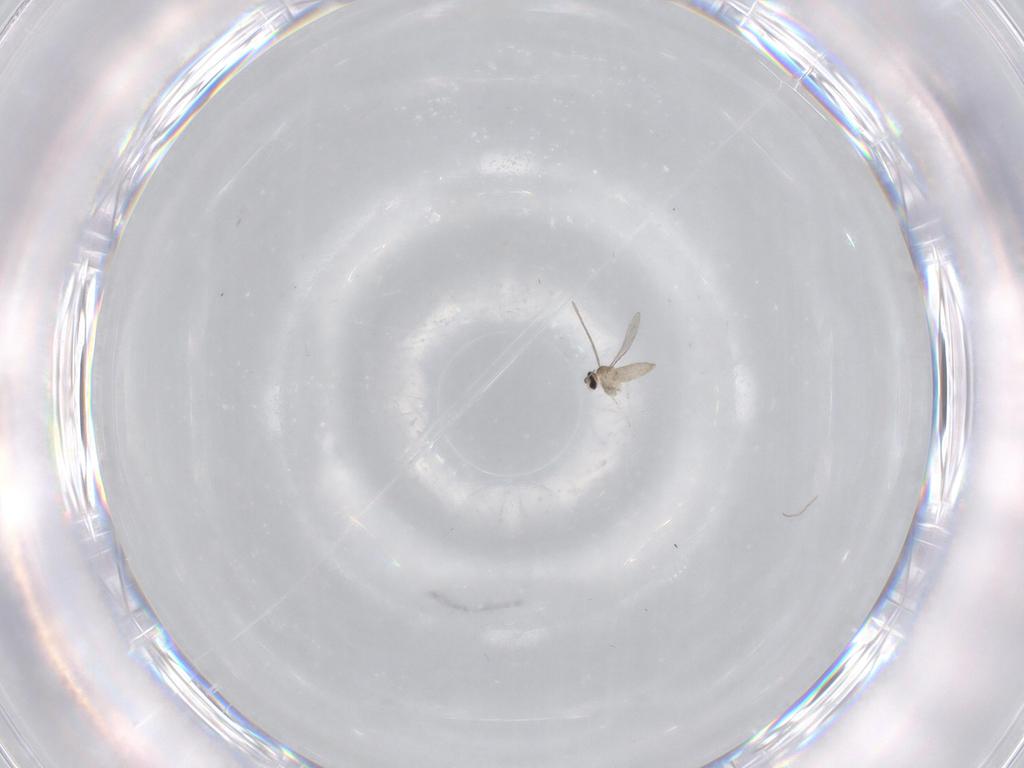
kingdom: Animalia
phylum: Arthropoda
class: Insecta
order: Diptera
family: Cecidomyiidae
